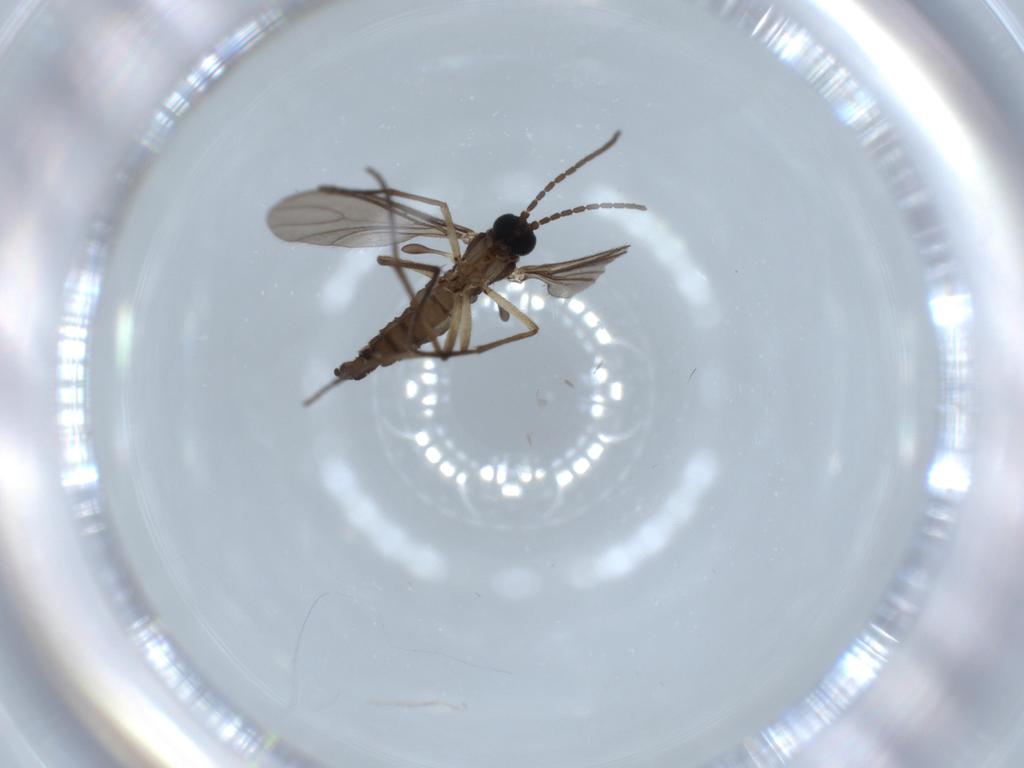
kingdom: Animalia
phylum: Arthropoda
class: Insecta
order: Diptera
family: Sciaridae
